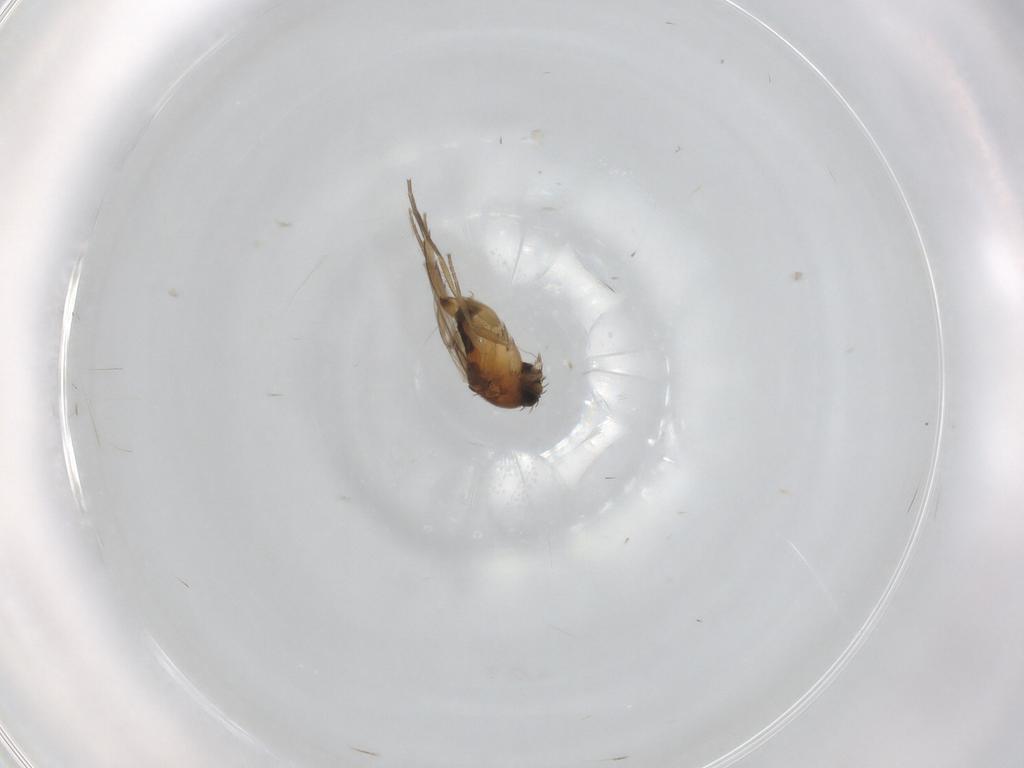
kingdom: Animalia
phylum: Arthropoda
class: Insecta
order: Diptera
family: Phoridae
